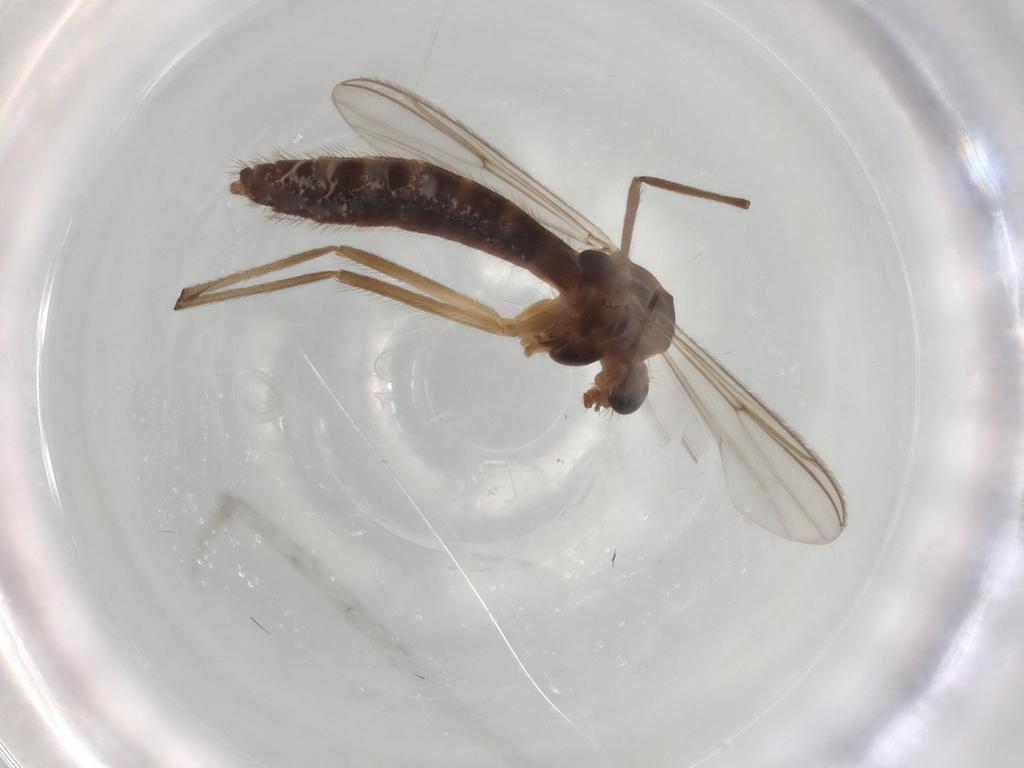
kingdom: Animalia
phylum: Arthropoda
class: Insecta
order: Diptera
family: Chironomidae
